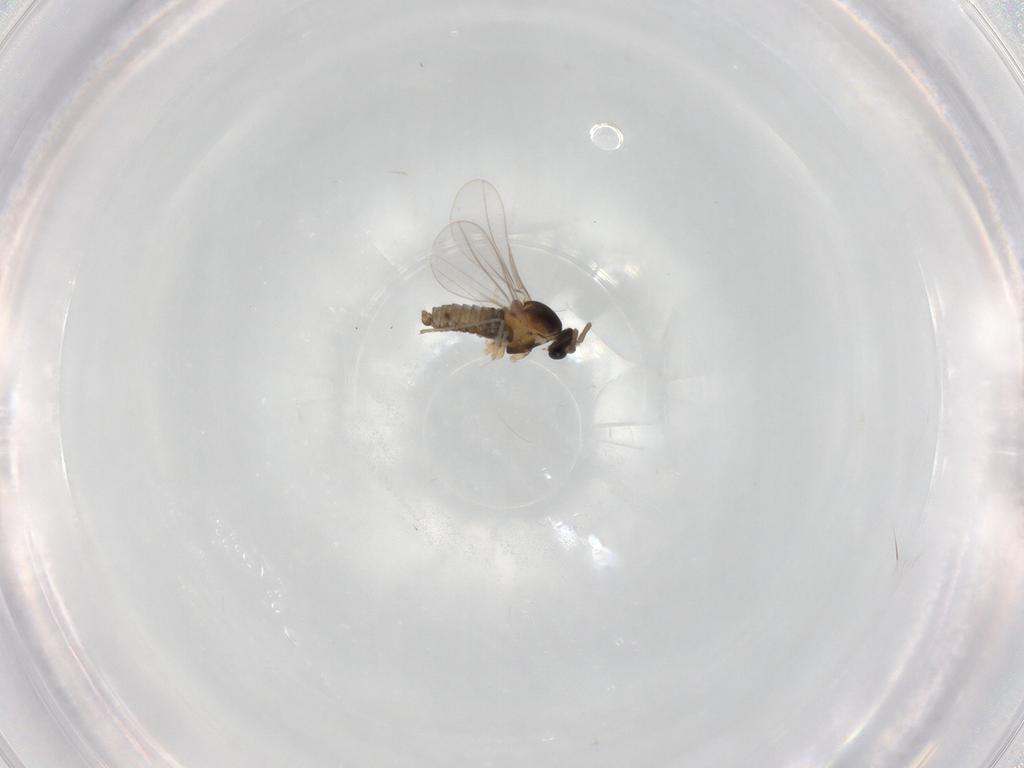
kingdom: Animalia
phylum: Arthropoda
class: Insecta
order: Diptera
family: Cecidomyiidae
